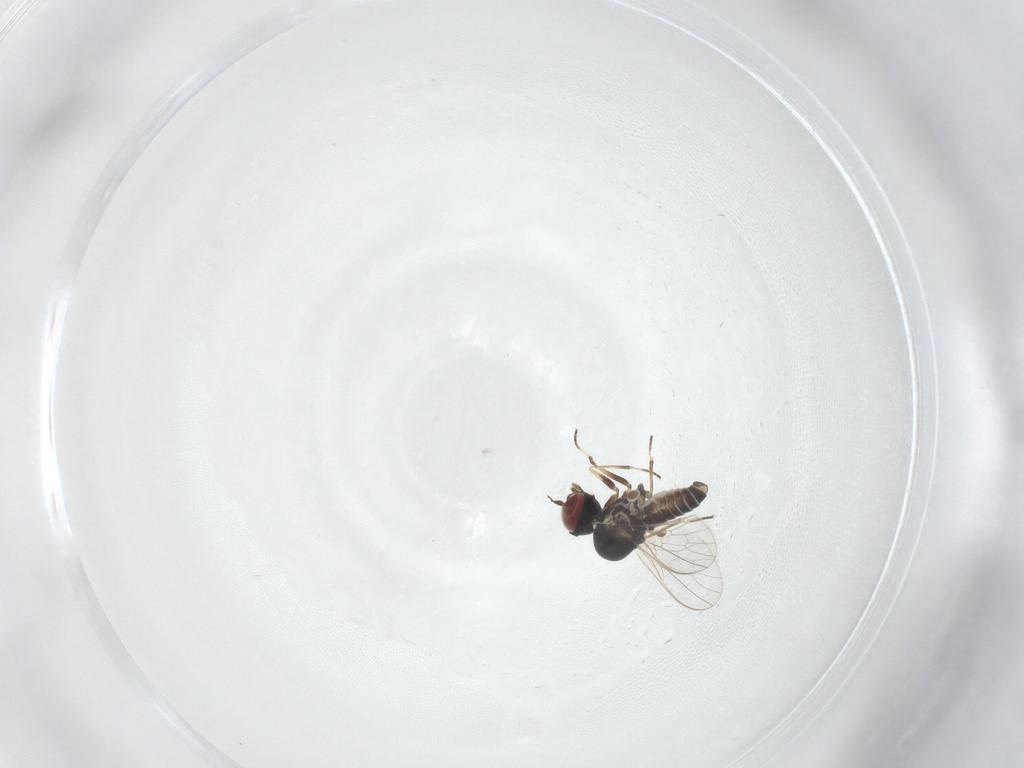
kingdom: Animalia
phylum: Arthropoda
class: Insecta
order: Diptera
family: Mythicomyiidae
